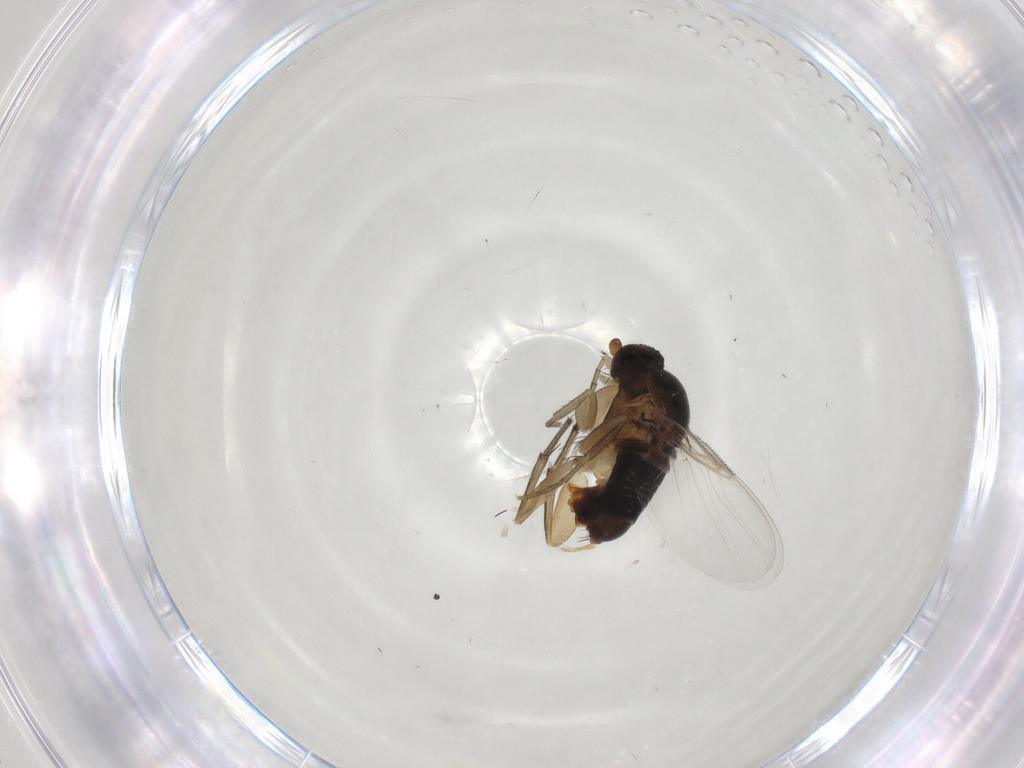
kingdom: Animalia
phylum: Arthropoda
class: Insecta
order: Diptera
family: Phoridae
